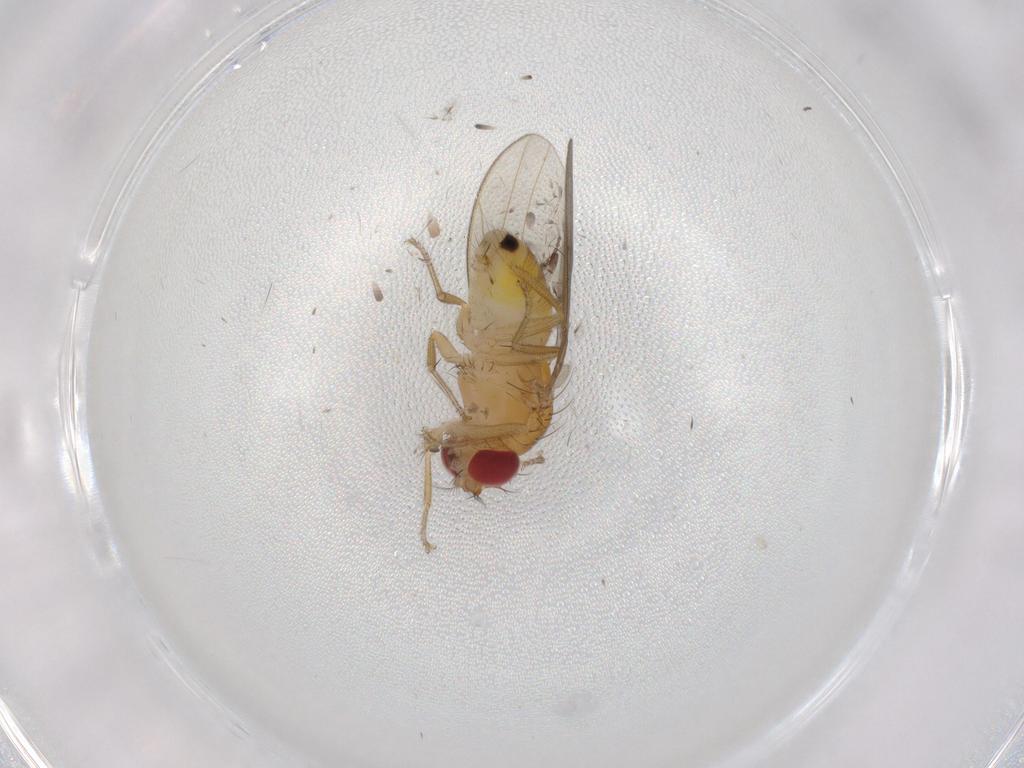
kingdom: Animalia
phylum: Arthropoda
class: Insecta
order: Diptera
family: Drosophilidae
